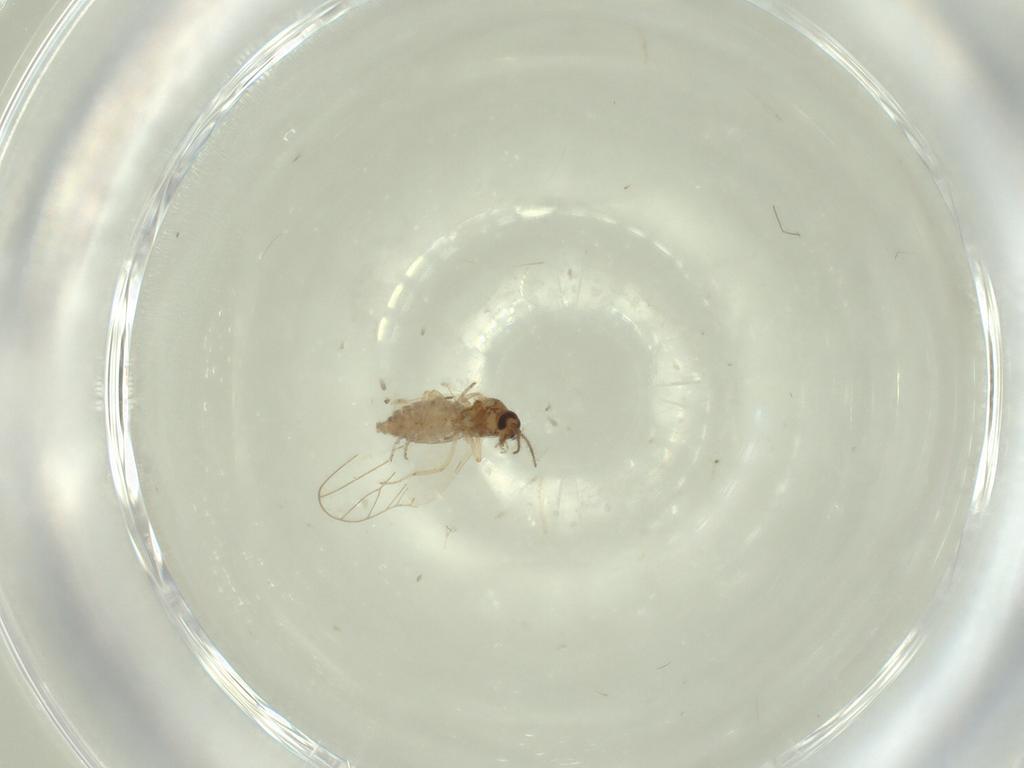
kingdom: Animalia
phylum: Arthropoda
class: Insecta
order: Diptera
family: Ceratopogonidae
